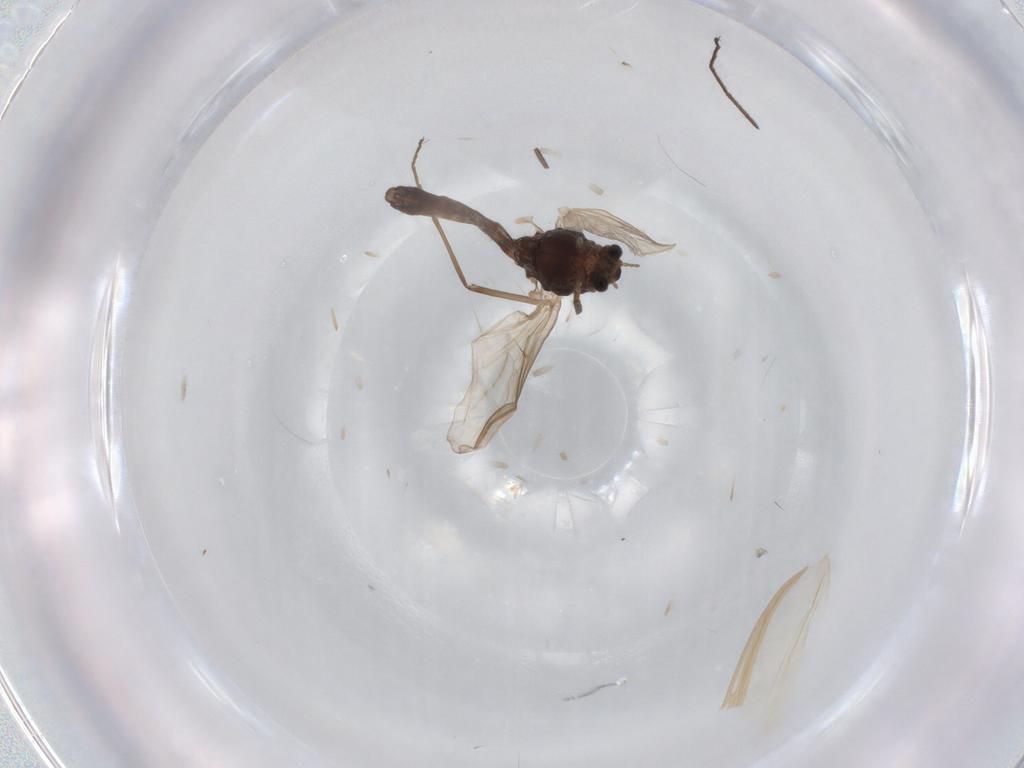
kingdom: Animalia
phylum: Arthropoda
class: Insecta
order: Diptera
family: Chironomidae
